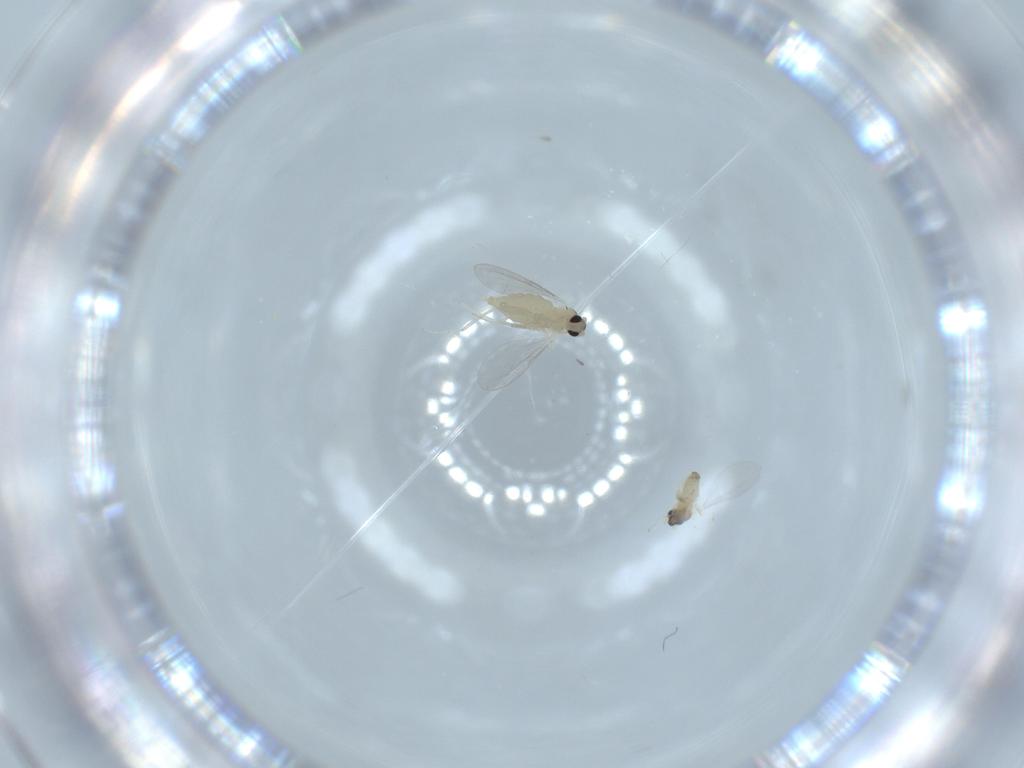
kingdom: Animalia
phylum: Arthropoda
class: Insecta
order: Diptera
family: Cecidomyiidae
